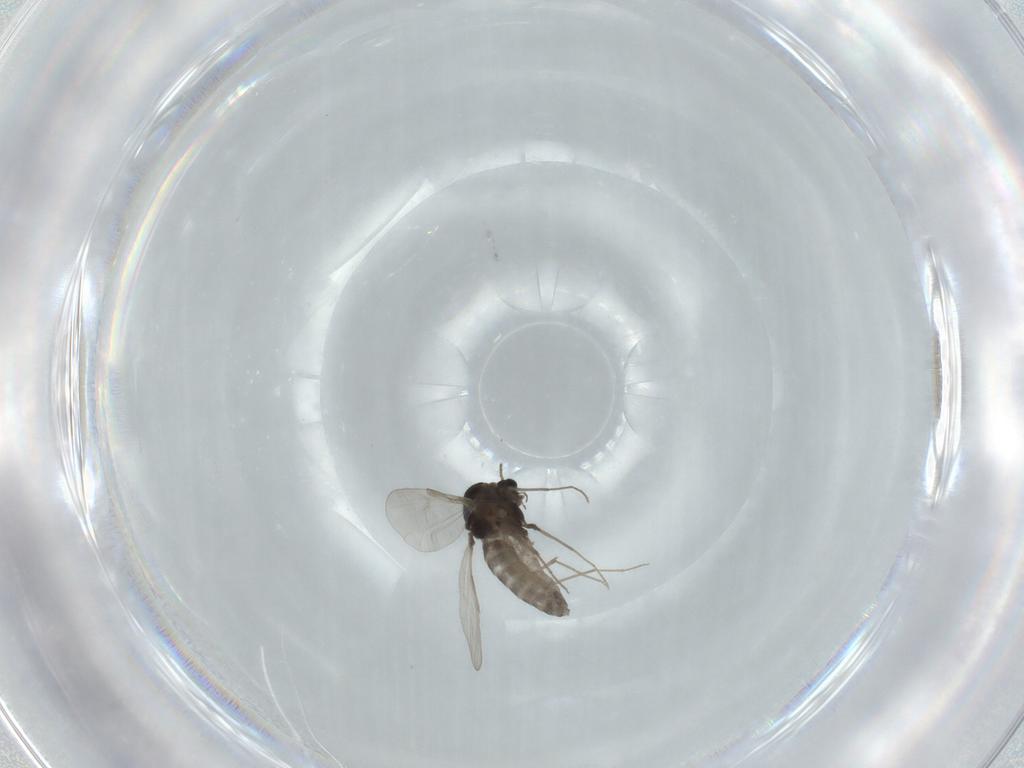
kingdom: Animalia
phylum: Arthropoda
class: Insecta
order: Diptera
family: Chironomidae
